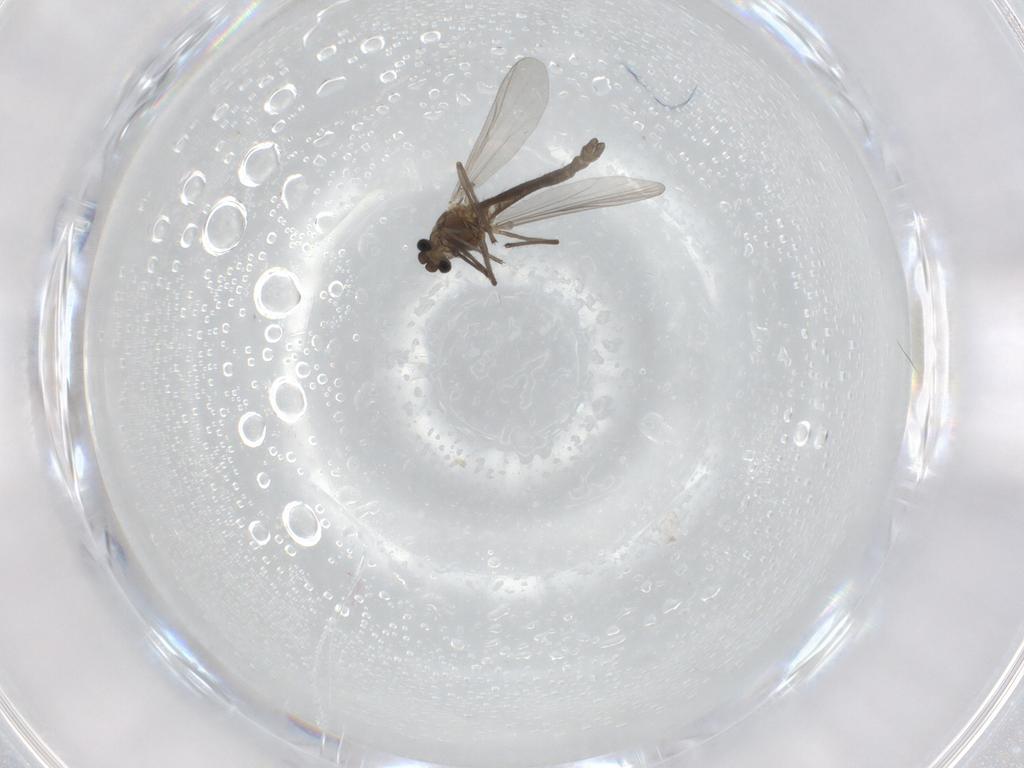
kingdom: Animalia
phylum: Arthropoda
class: Insecta
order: Diptera
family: Chironomidae
